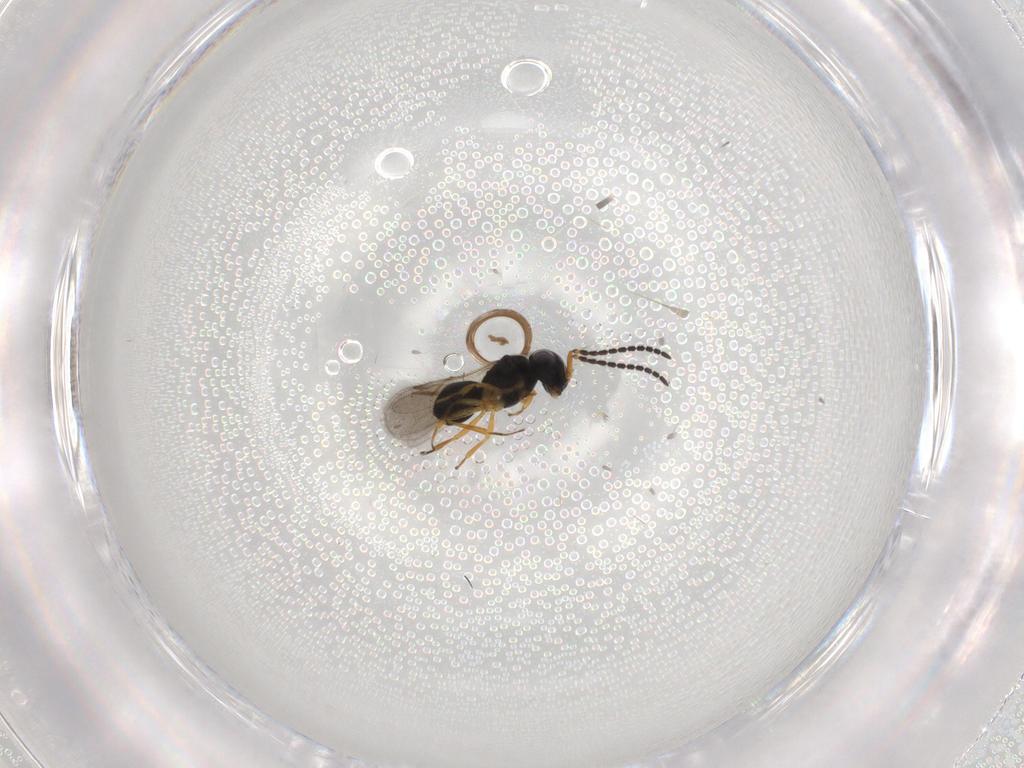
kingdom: Animalia
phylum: Arthropoda
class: Insecta
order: Hymenoptera
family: Scelionidae
